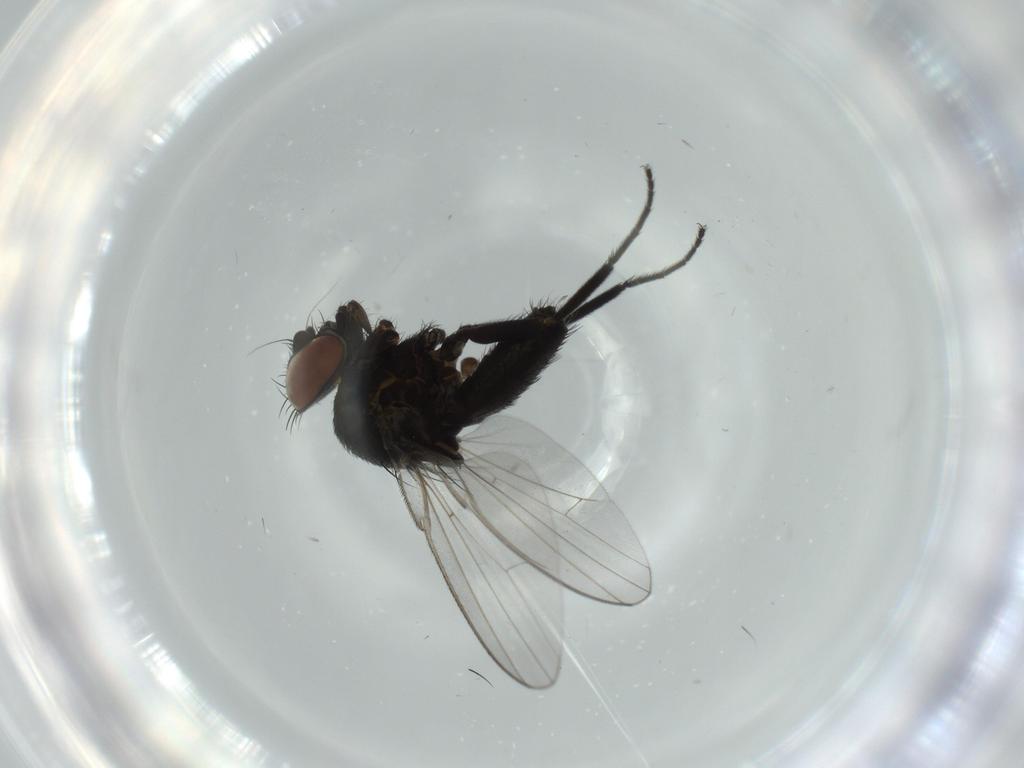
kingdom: Animalia
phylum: Arthropoda
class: Insecta
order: Diptera
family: Milichiidae
